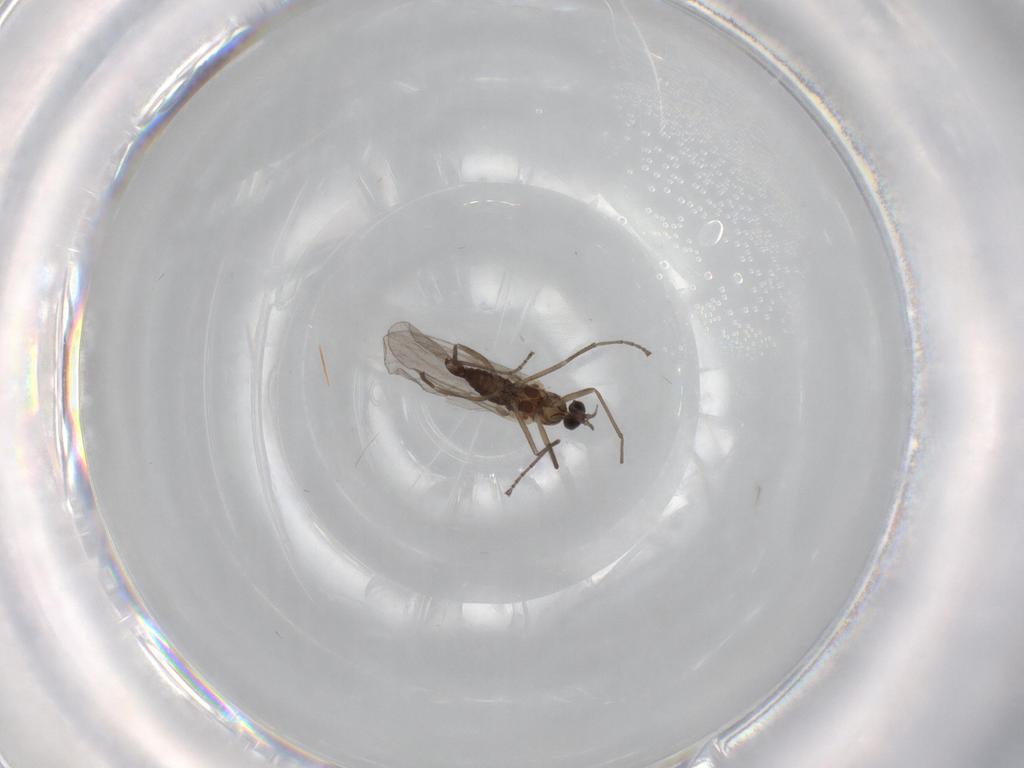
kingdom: Animalia
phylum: Arthropoda
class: Insecta
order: Diptera
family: Cecidomyiidae
